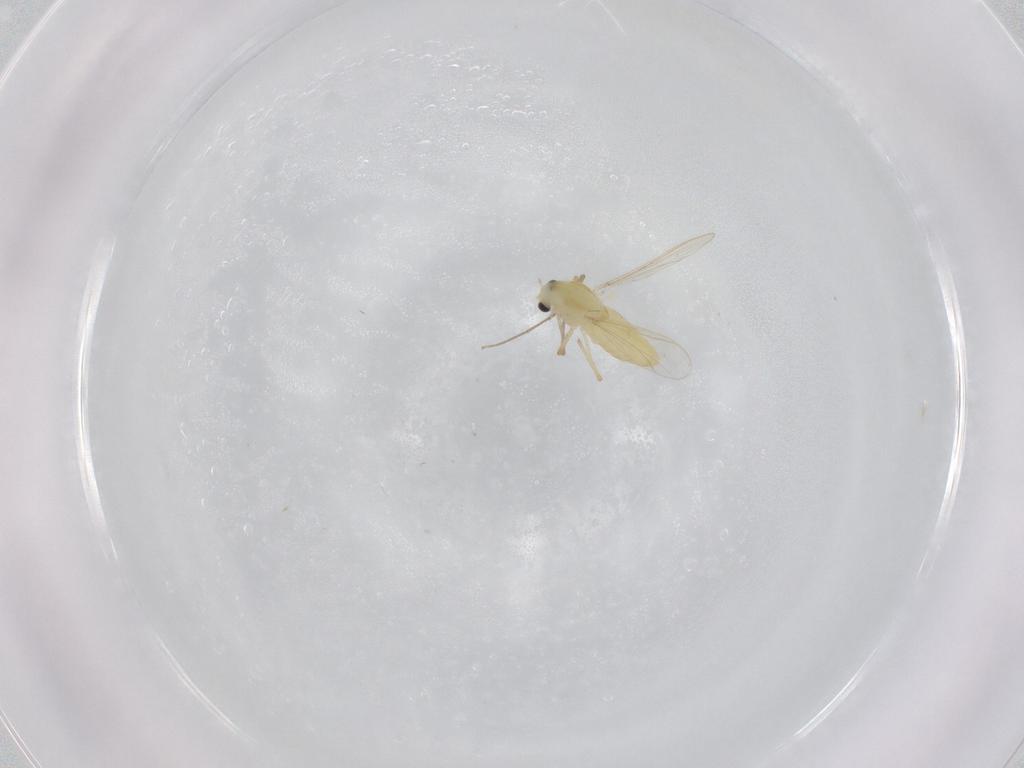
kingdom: Animalia
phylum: Arthropoda
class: Insecta
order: Diptera
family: Chironomidae
